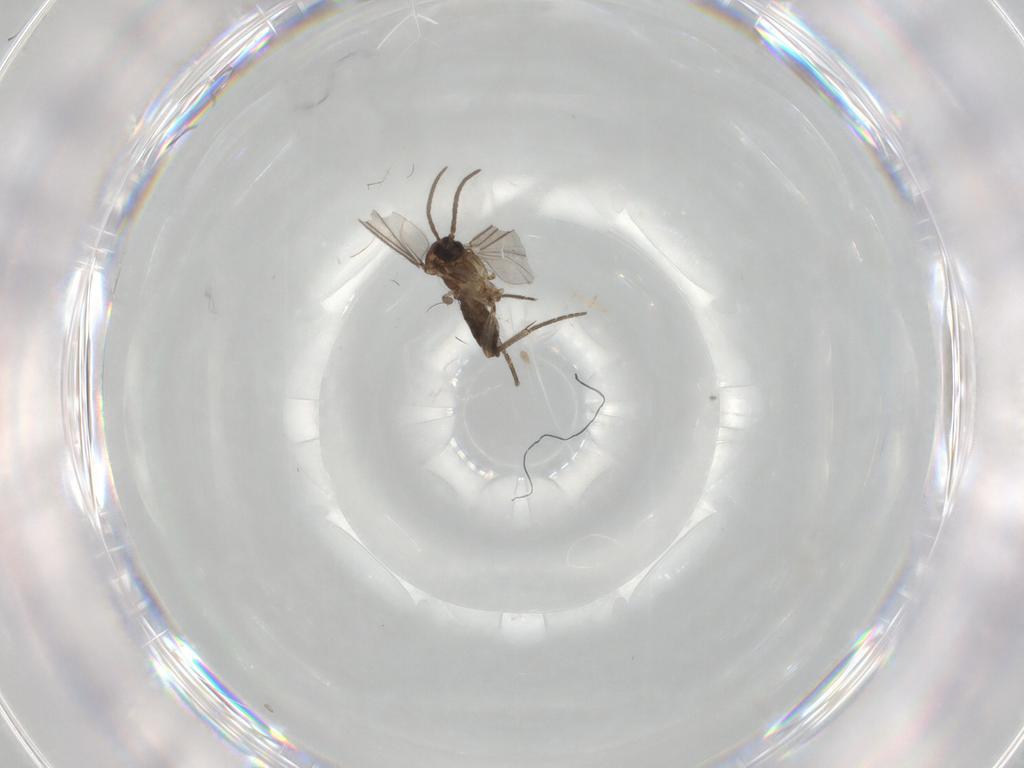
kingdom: Animalia
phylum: Arthropoda
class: Insecta
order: Diptera
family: Sciaridae
